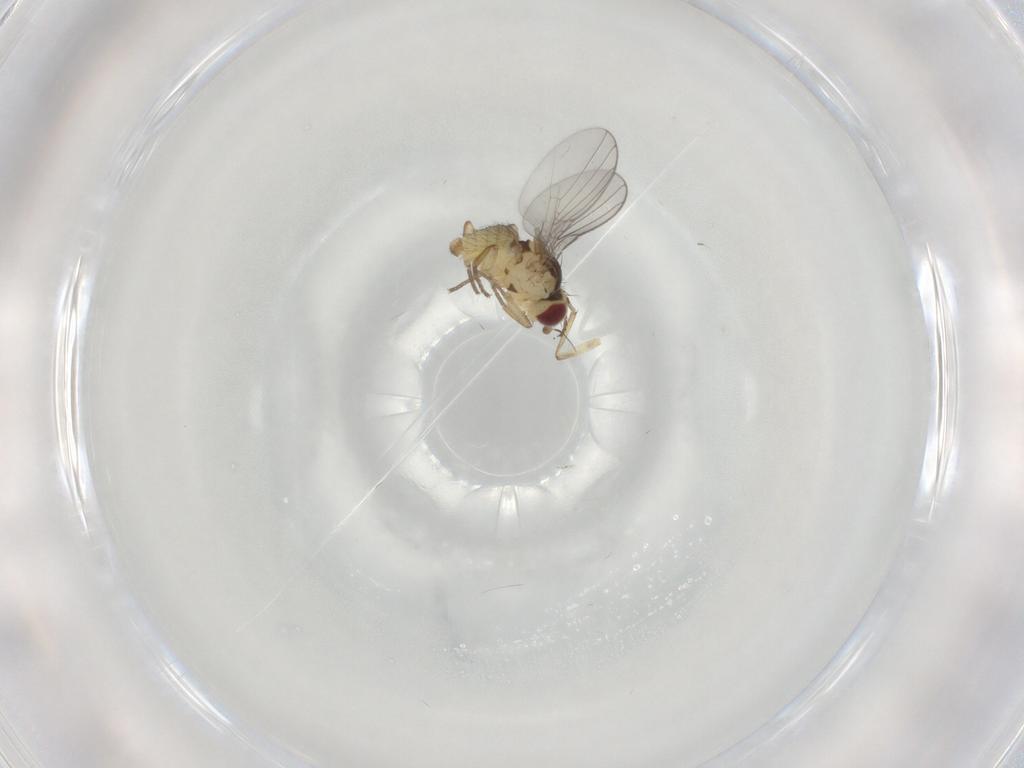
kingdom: Animalia
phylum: Arthropoda
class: Insecta
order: Diptera
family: Agromyzidae
